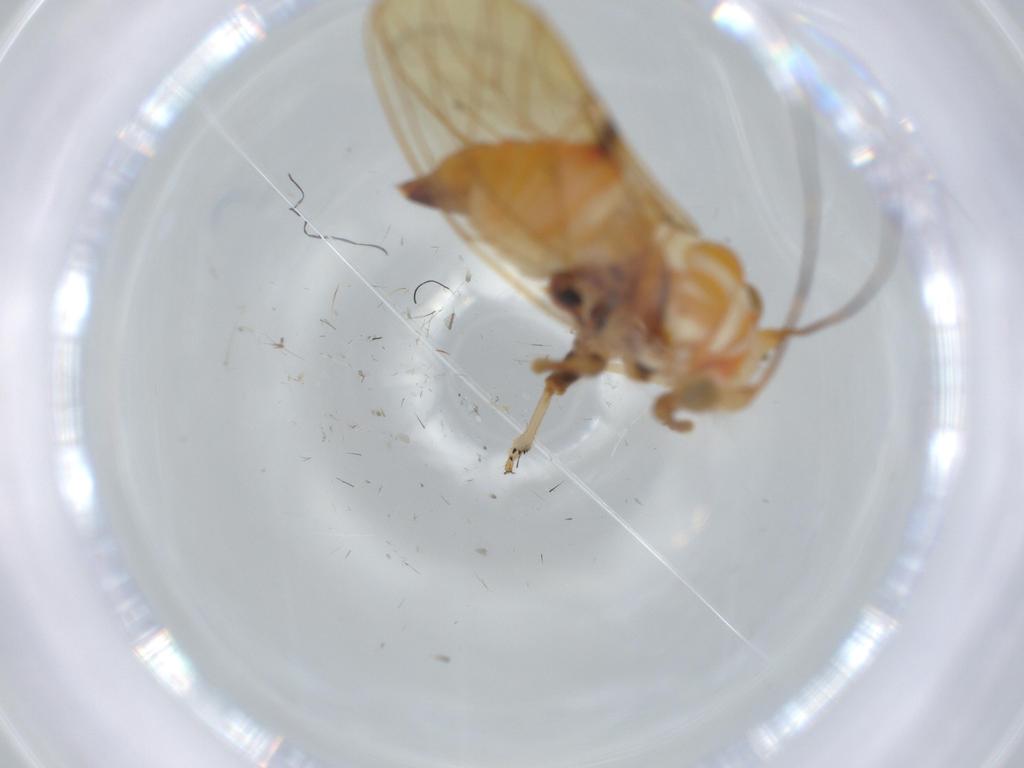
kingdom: Animalia
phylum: Arthropoda
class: Insecta
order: Hemiptera
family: Psyllidae
